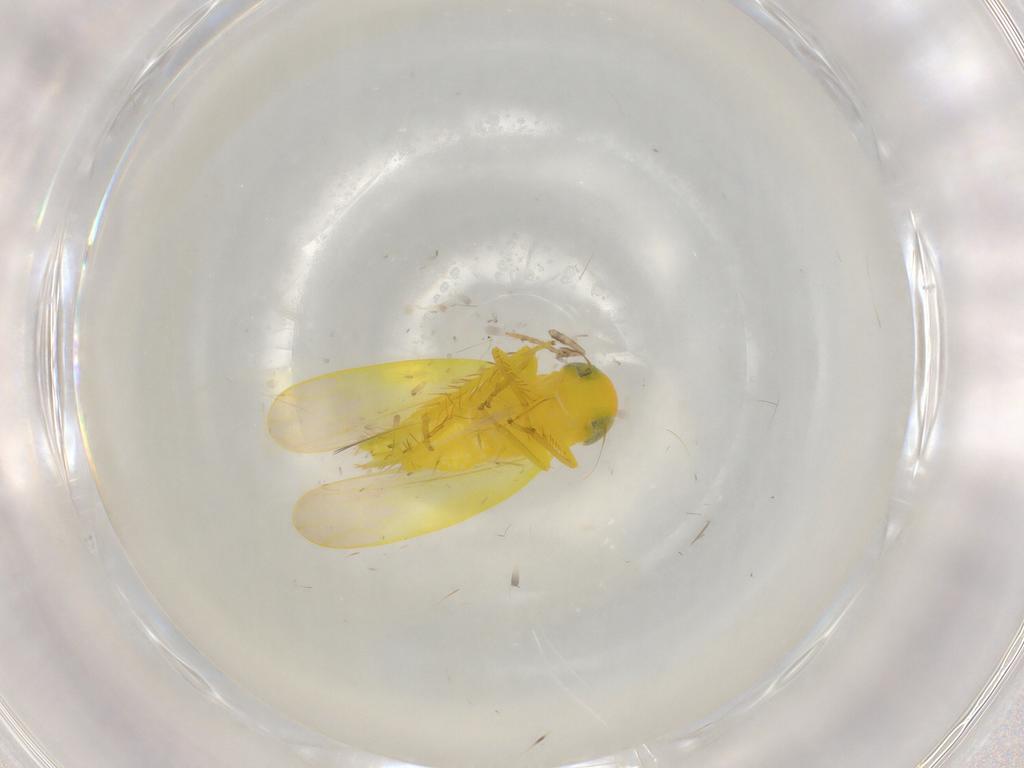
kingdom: Animalia
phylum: Arthropoda
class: Insecta
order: Hemiptera
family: Cicadellidae
